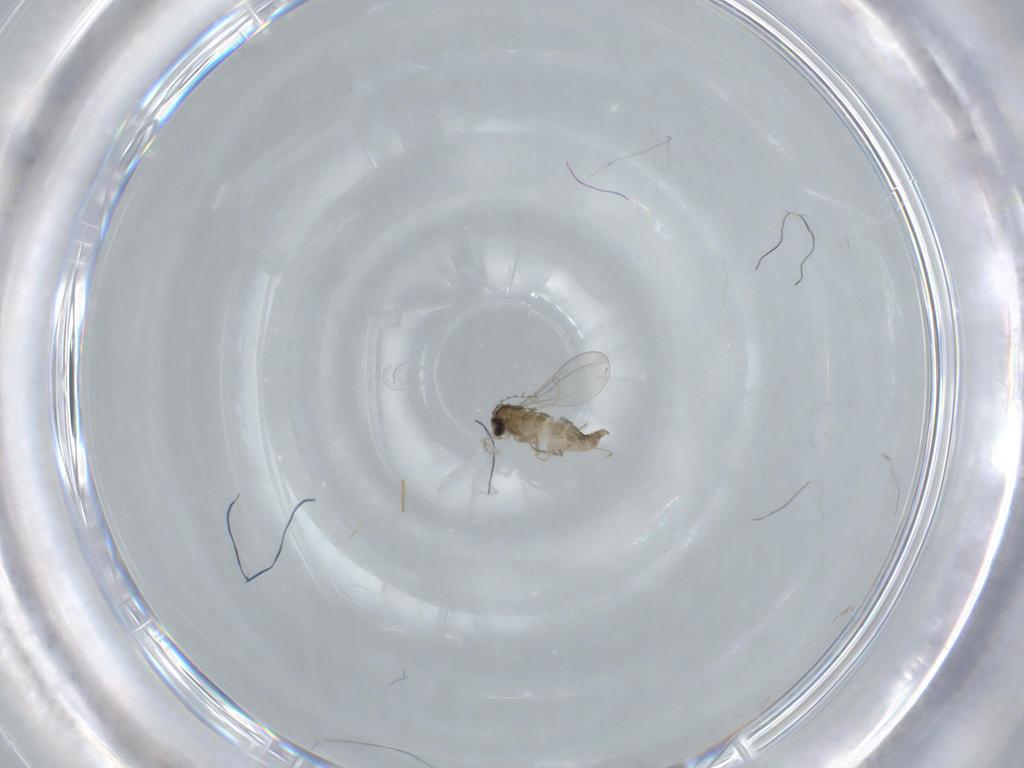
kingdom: Animalia
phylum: Arthropoda
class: Insecta
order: Diptera
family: Cecidomyiidae
